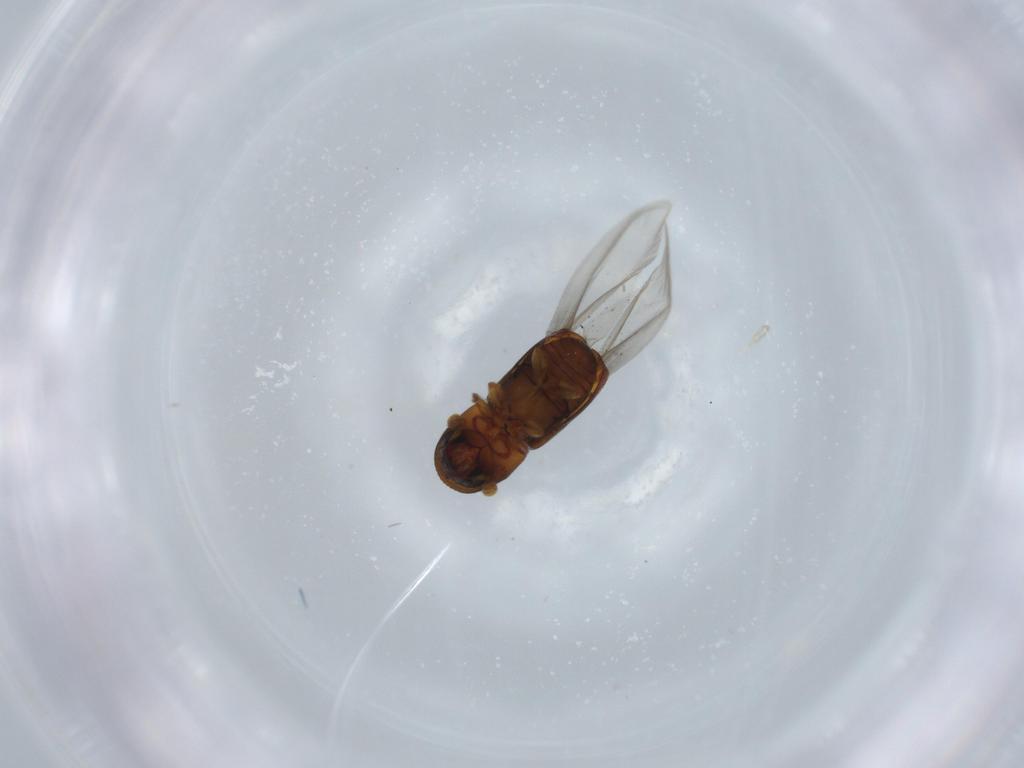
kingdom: Animalia
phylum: Arthropoda
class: Insecta
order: Coleoptera
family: Curculionidae
